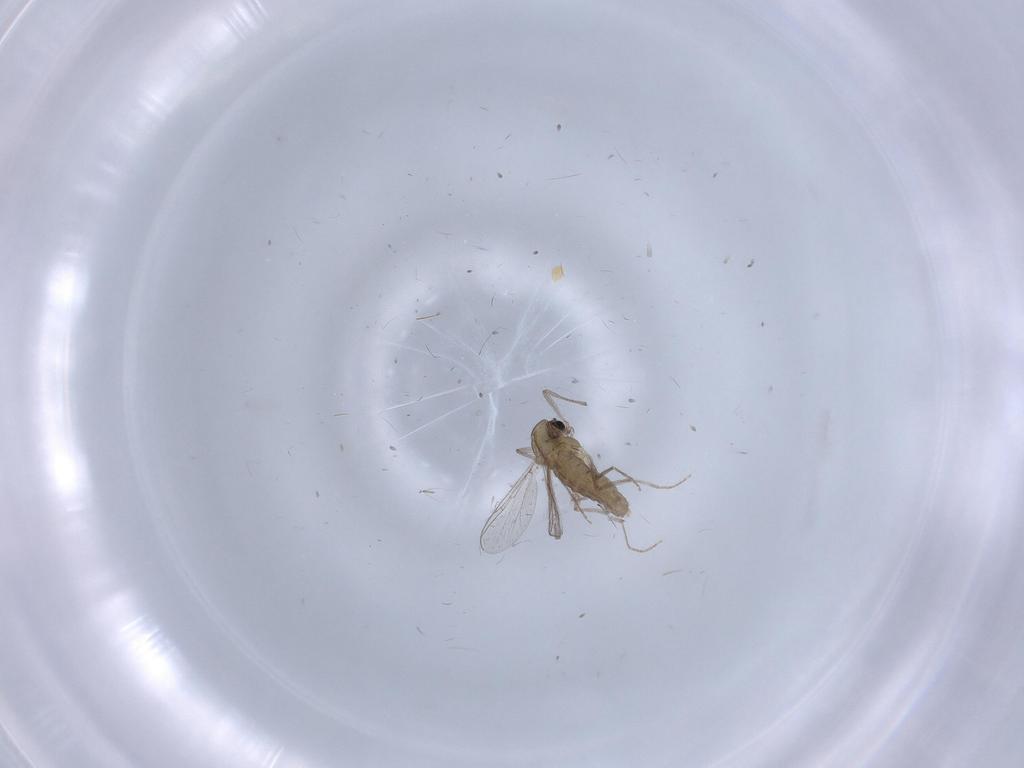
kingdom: Animalia
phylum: Arthropoda
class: Insecta
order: Diptera
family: Chironomidae
